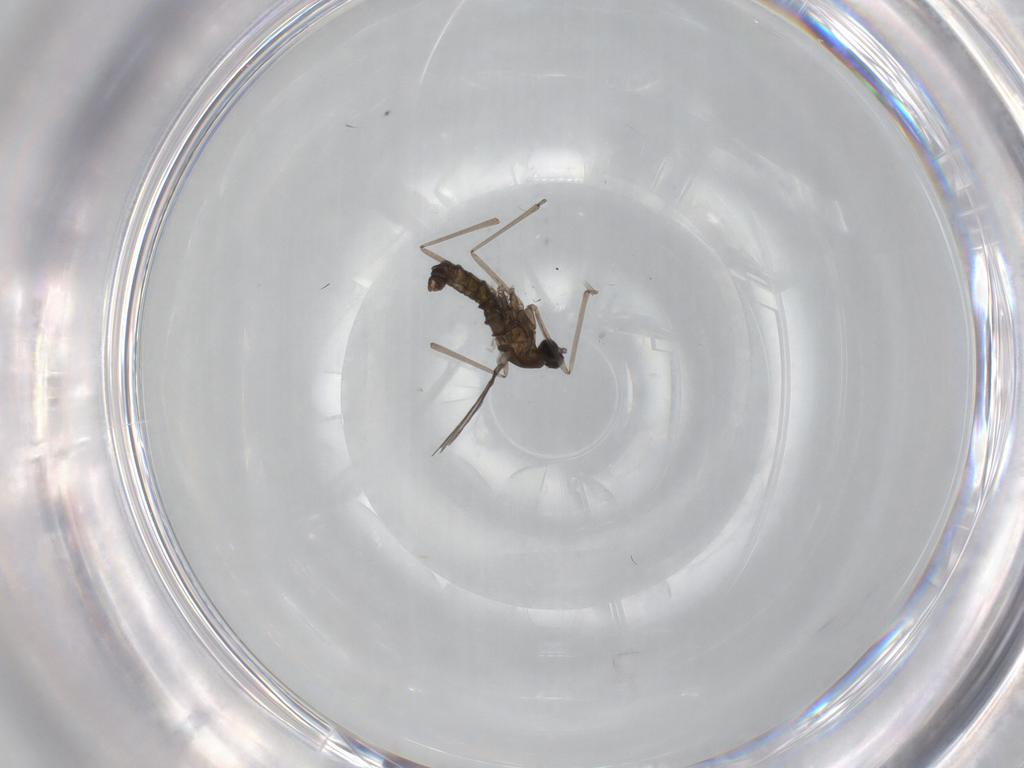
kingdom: Animalia
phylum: Arthropoda
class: Insecta
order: Diptera
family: Cecidomyiidae
